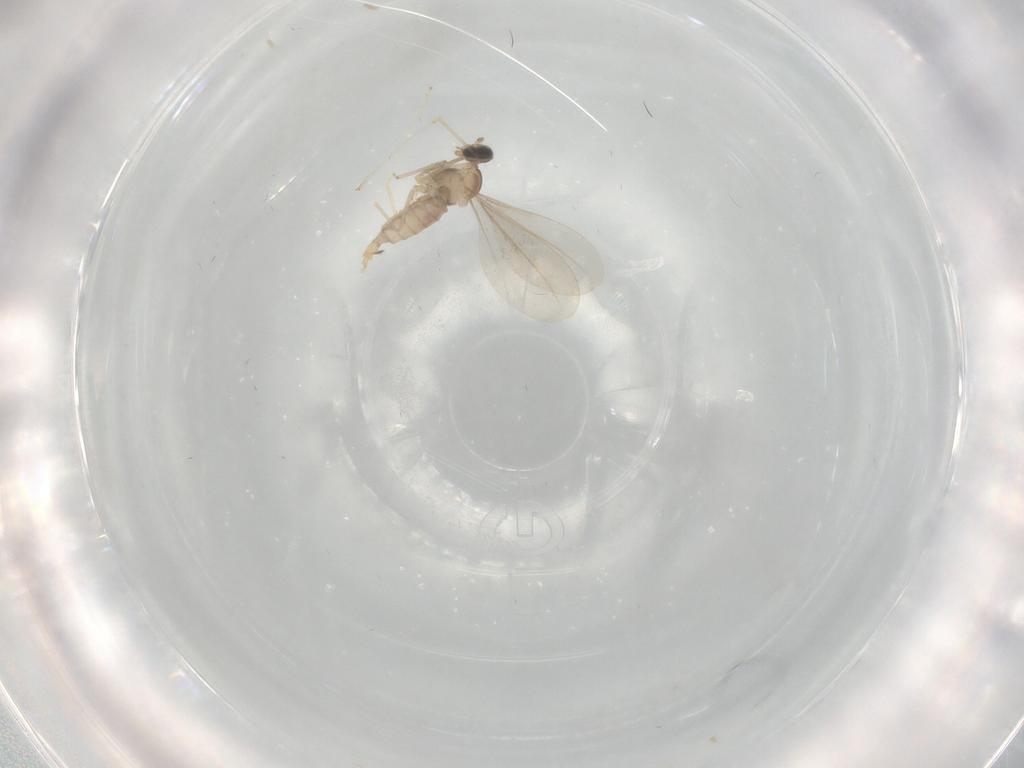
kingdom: Animalia
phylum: Arthropoda
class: Insecta
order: Diptera
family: Cecidomyiidae
